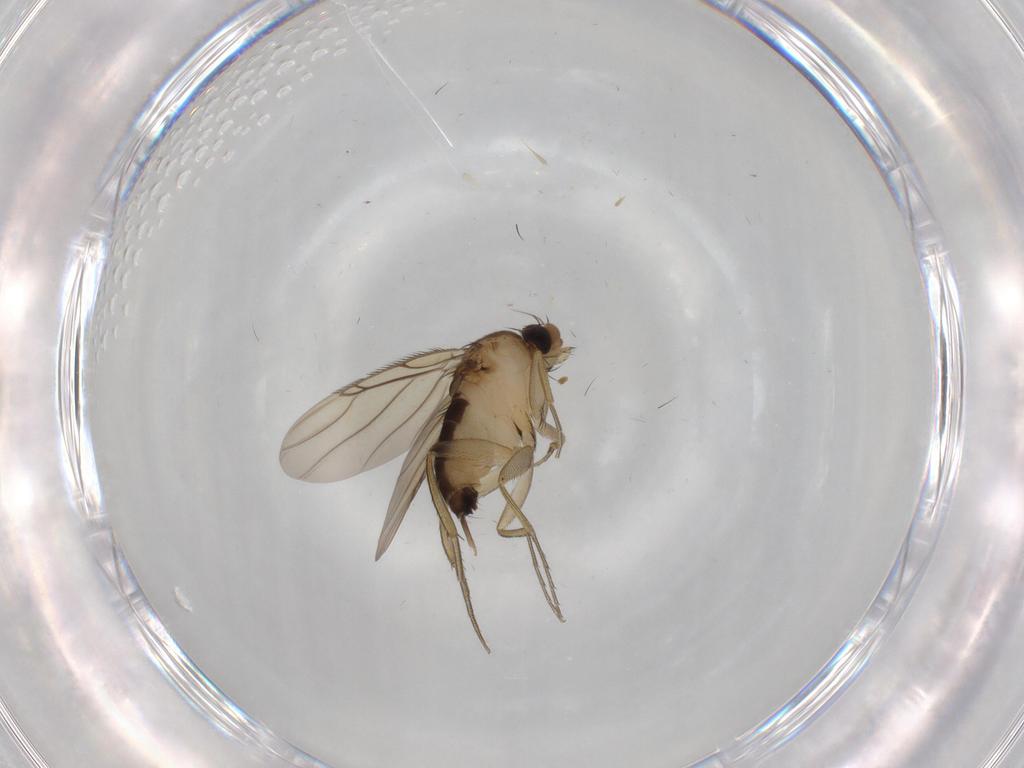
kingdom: Animalia
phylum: Arthropoda
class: Insecta
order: Diptera
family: Phoridae
